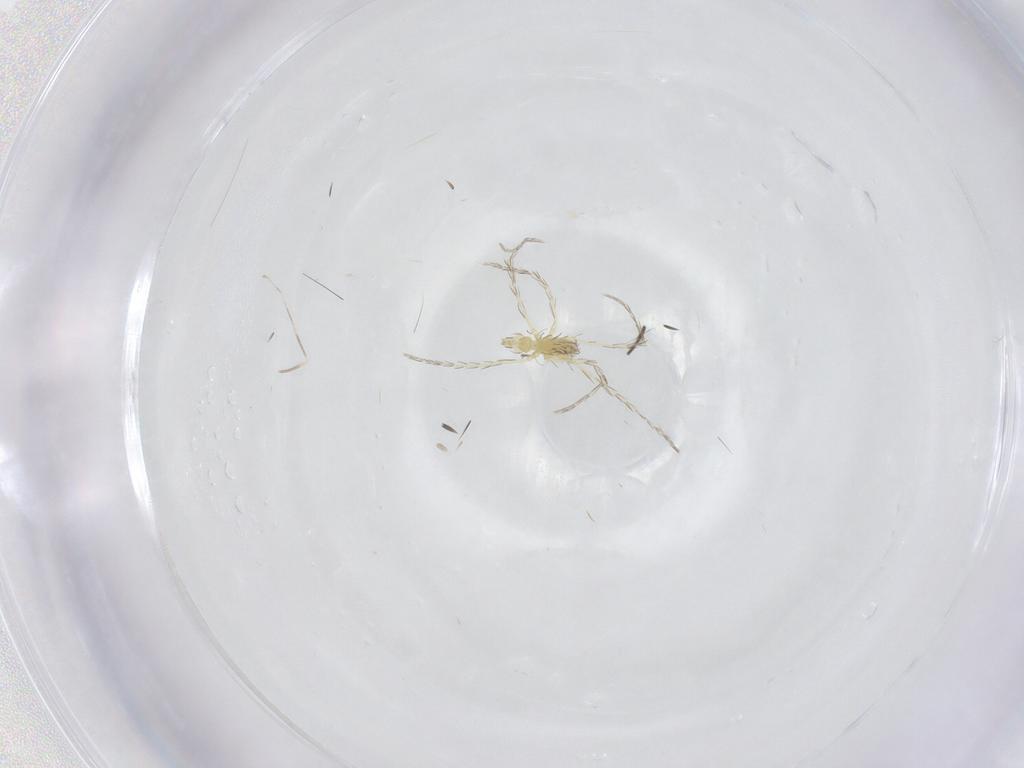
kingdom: Animalia
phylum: Arthropoda
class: Insecta
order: Diptera
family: Sciaridae
